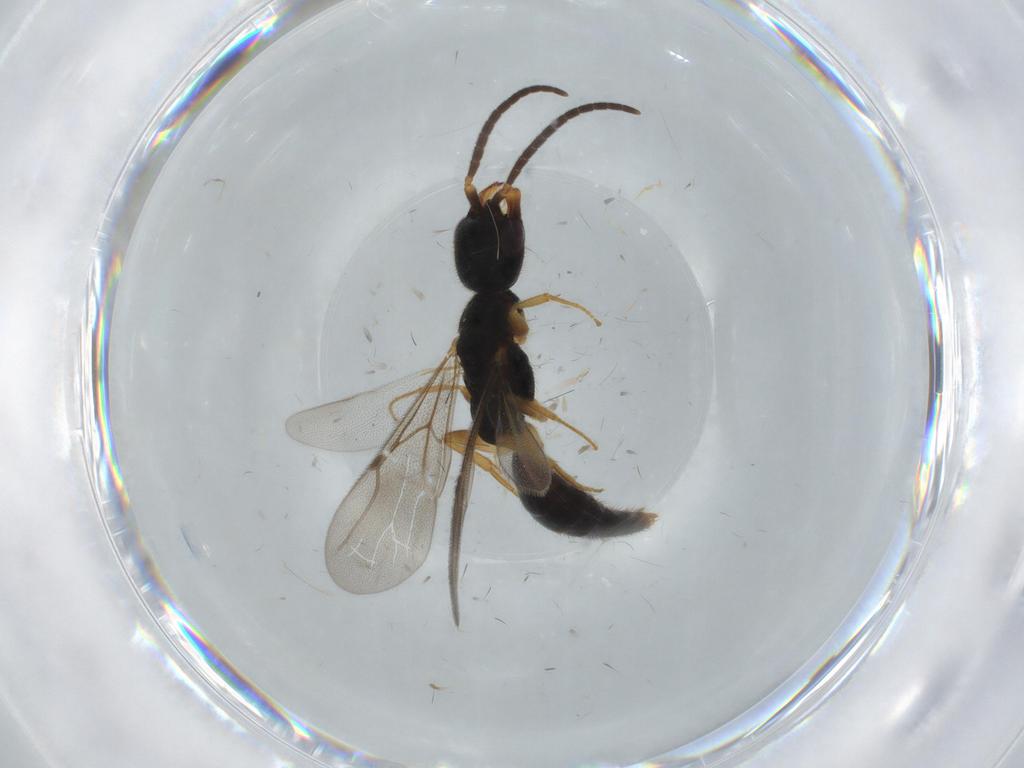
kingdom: Animalia
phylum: Arthropoda
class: Insecta
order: Hymenoptera
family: Bethylidae
